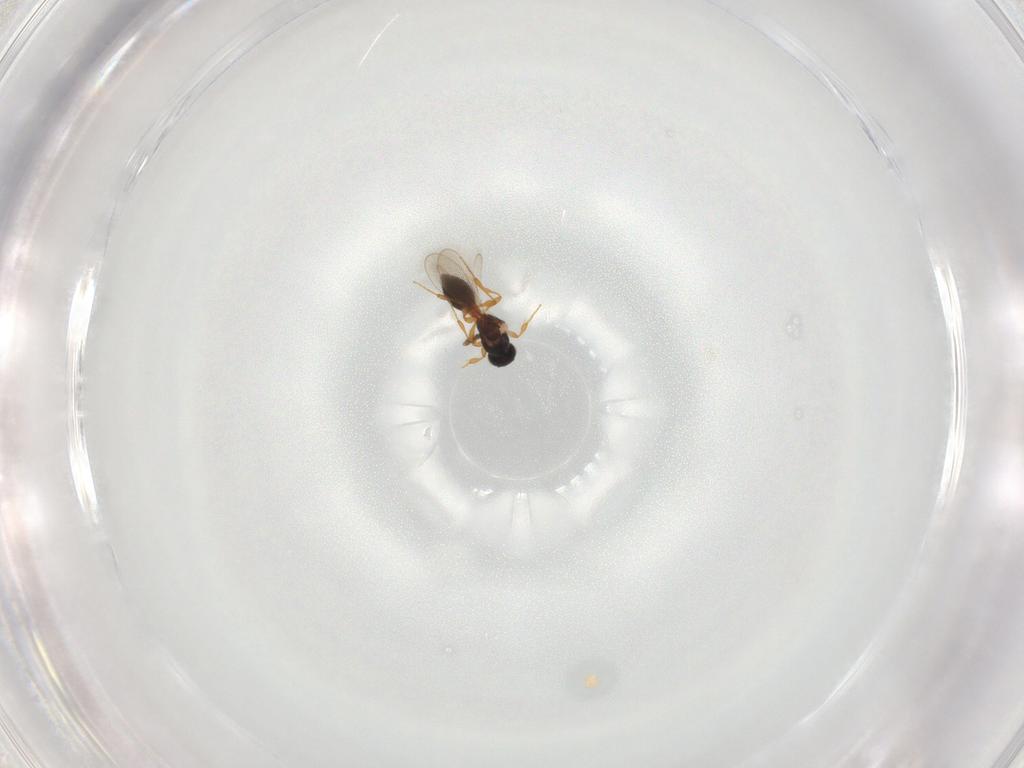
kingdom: Animalia
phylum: Arthropoda
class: Insecta
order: Hymenoptera
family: Platygastridae
